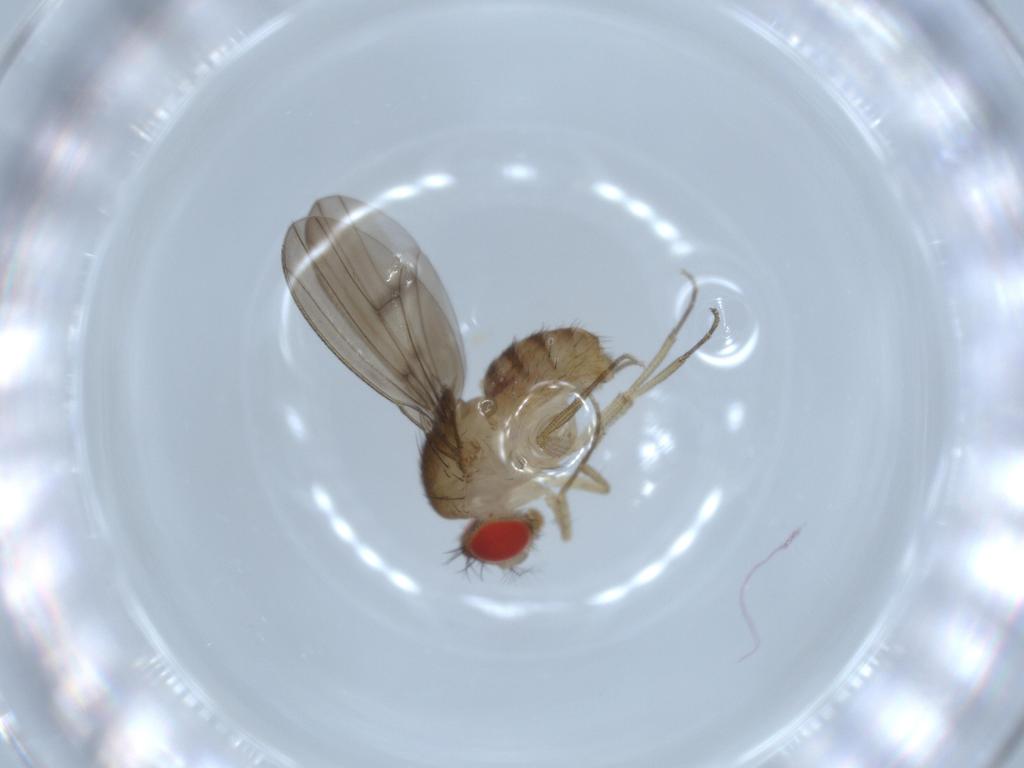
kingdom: Animalia
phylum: Arthropoda
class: Insecta
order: Diptera
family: Drosophilidae
